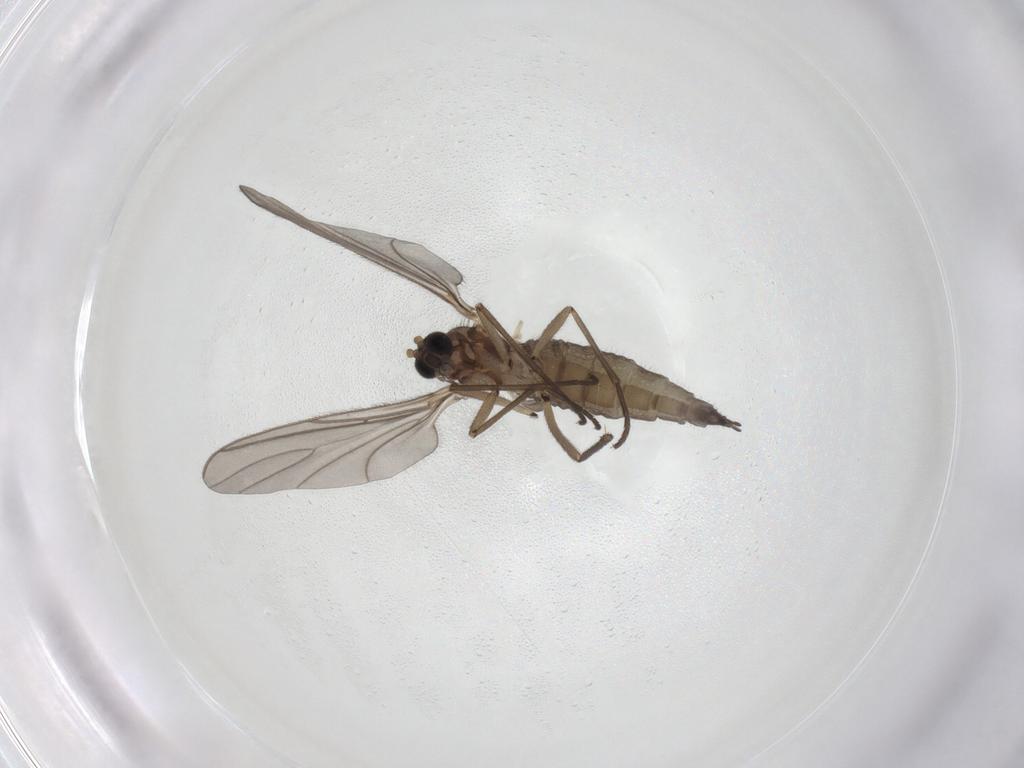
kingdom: Animalia
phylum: Arthropoda
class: Insecta
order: Diptera
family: Sciaridae
